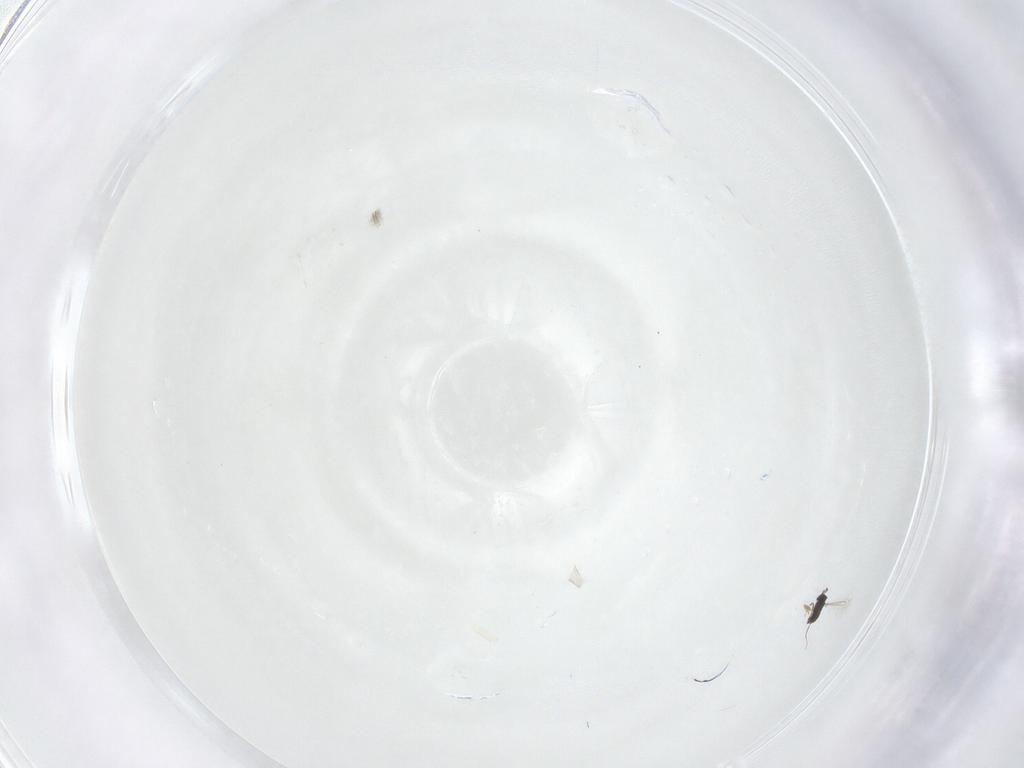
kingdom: Animalia
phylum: Arthropoda
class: Insecta
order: Hymenoptera
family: Mymaridae
